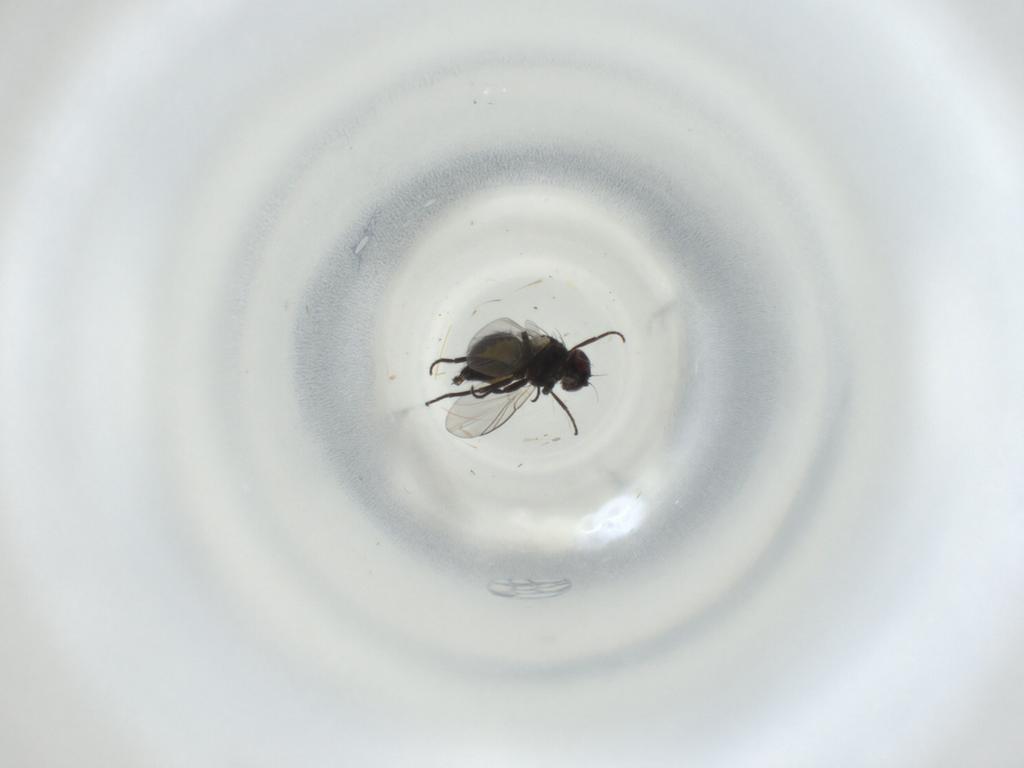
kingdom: Animalia
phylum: Arthropoda
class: Insecta
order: Diptera
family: Agromyzidae
